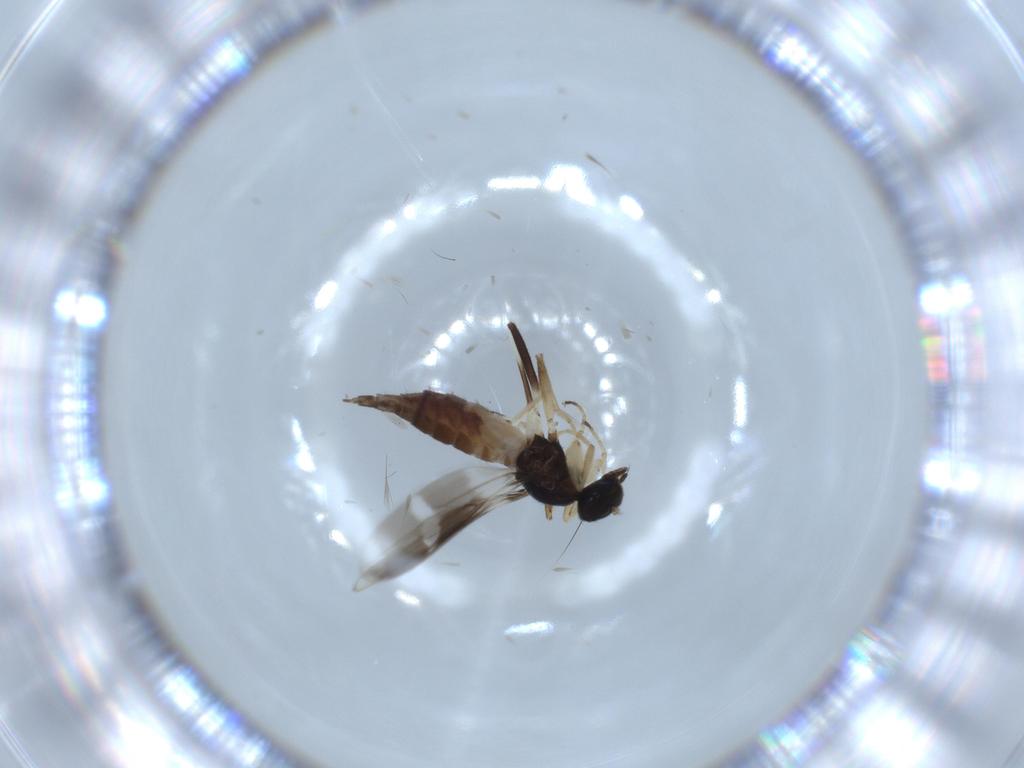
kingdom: Animalia
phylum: Arthropoda
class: Insecta
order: Diptera
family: Hybotidae
